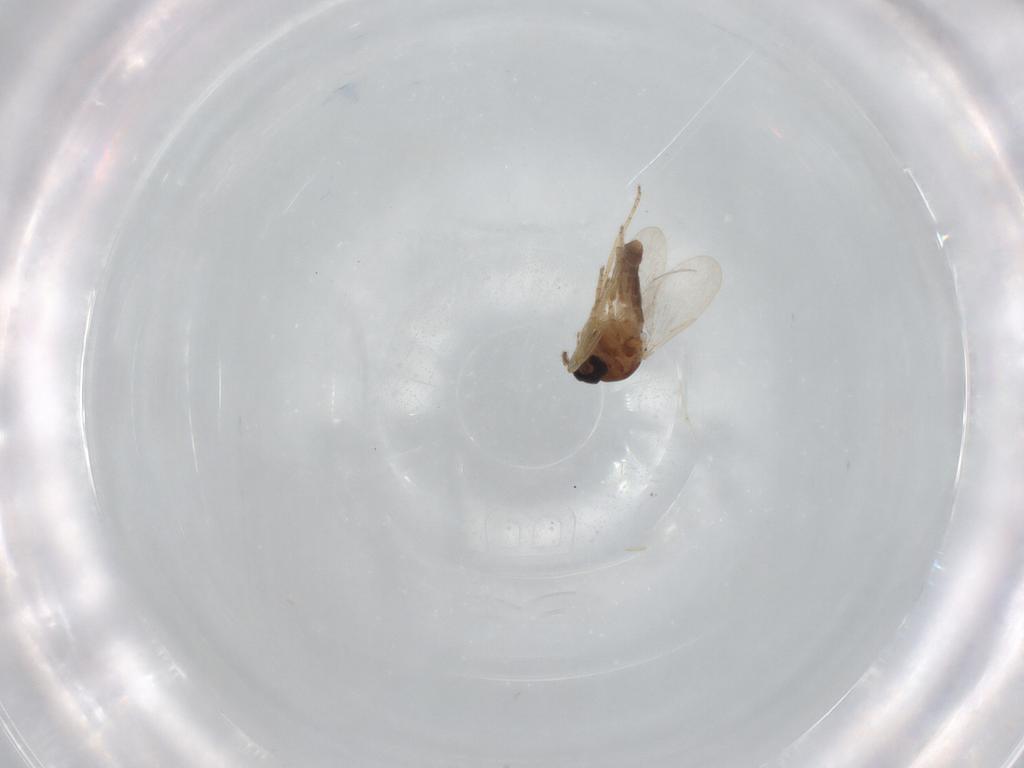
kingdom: Animalia
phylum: Arthropoda
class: Insecta
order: Diptera
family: Ceratopogonidae
